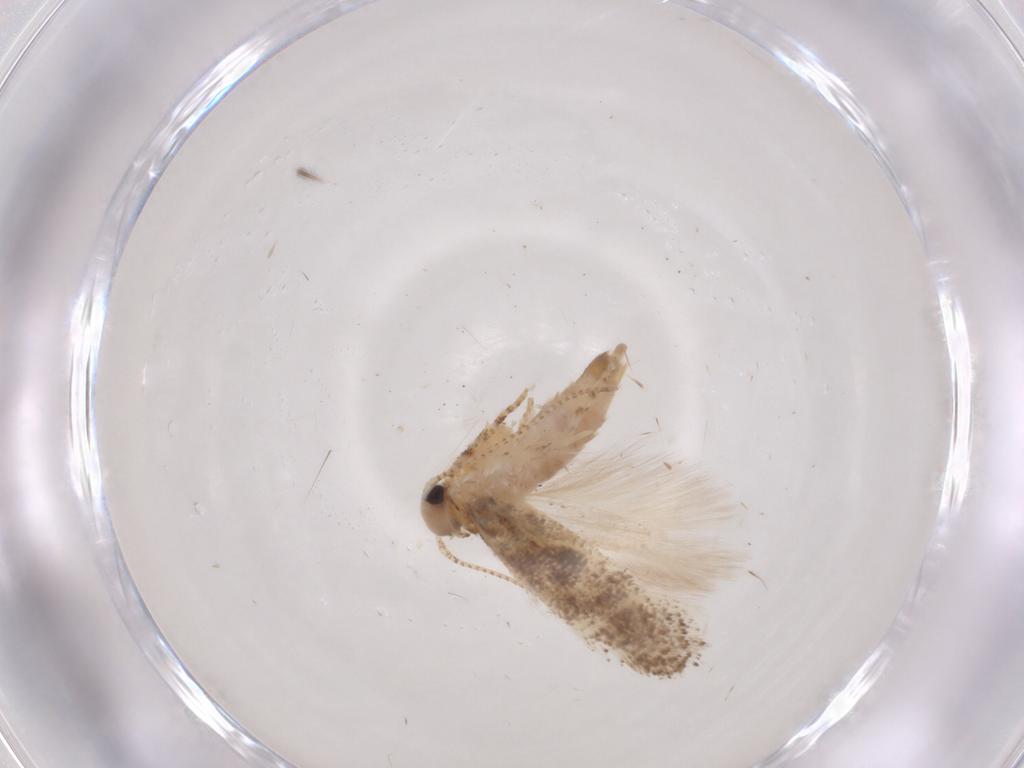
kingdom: Animalia
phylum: Arthropoda
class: Insecta
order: Lepidoptera
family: Gelechiidae
